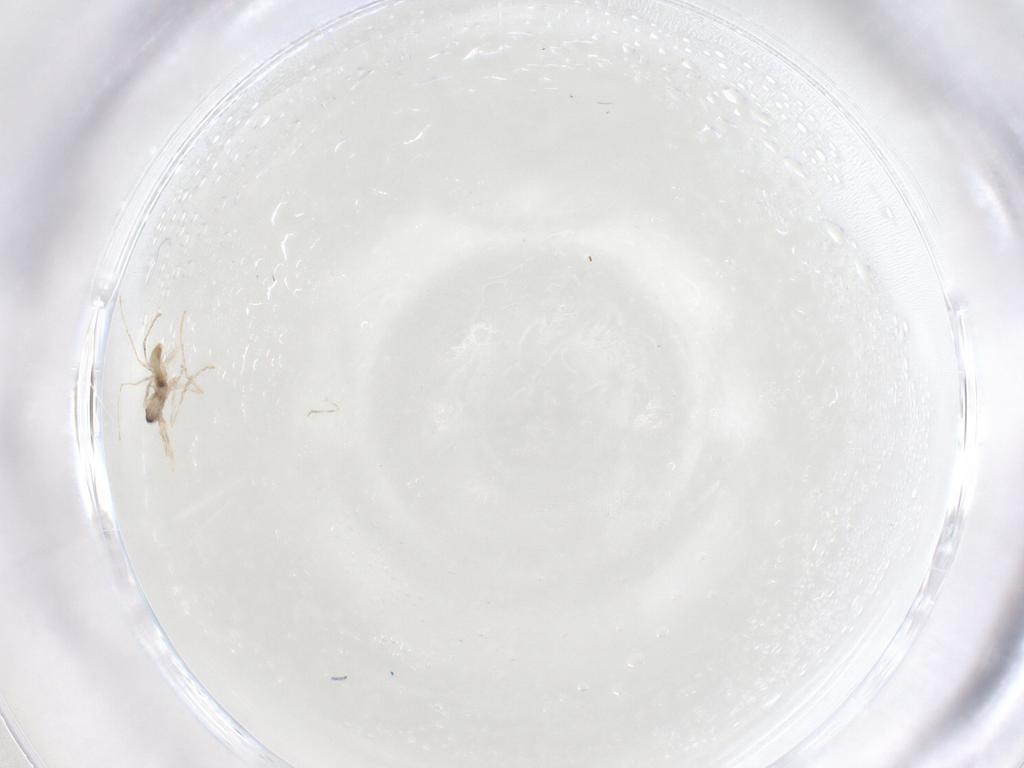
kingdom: Animalia
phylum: Arthropoda
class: Insecta
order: Diptera
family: Cecidomyiidae
